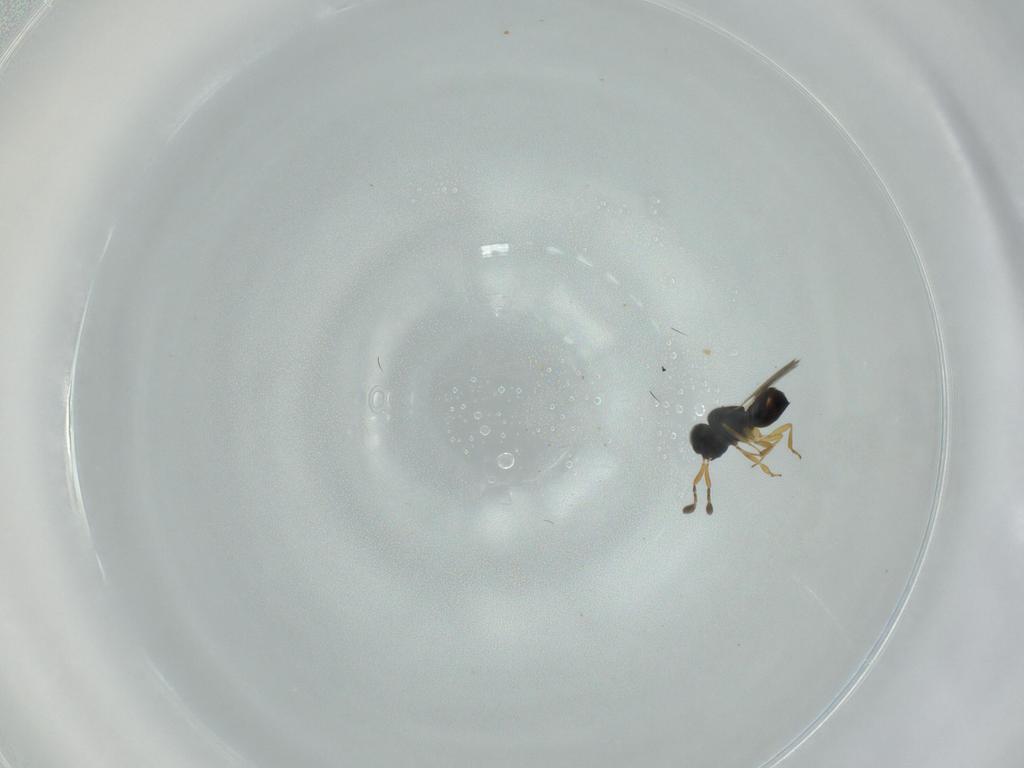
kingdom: Animalia
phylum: Arthropoda
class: Insecta
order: Hymenoptera
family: Scelionidae
